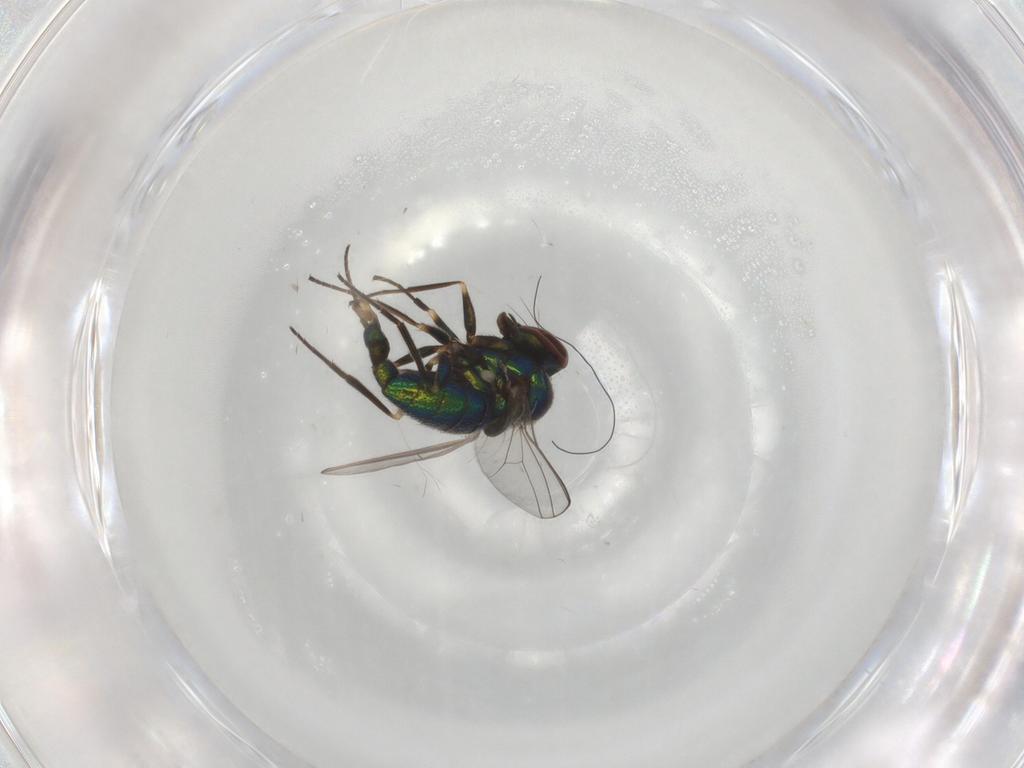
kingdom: Animalia
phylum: Arthropoda
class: Insecta
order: Diptera
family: Dolichopodidae
